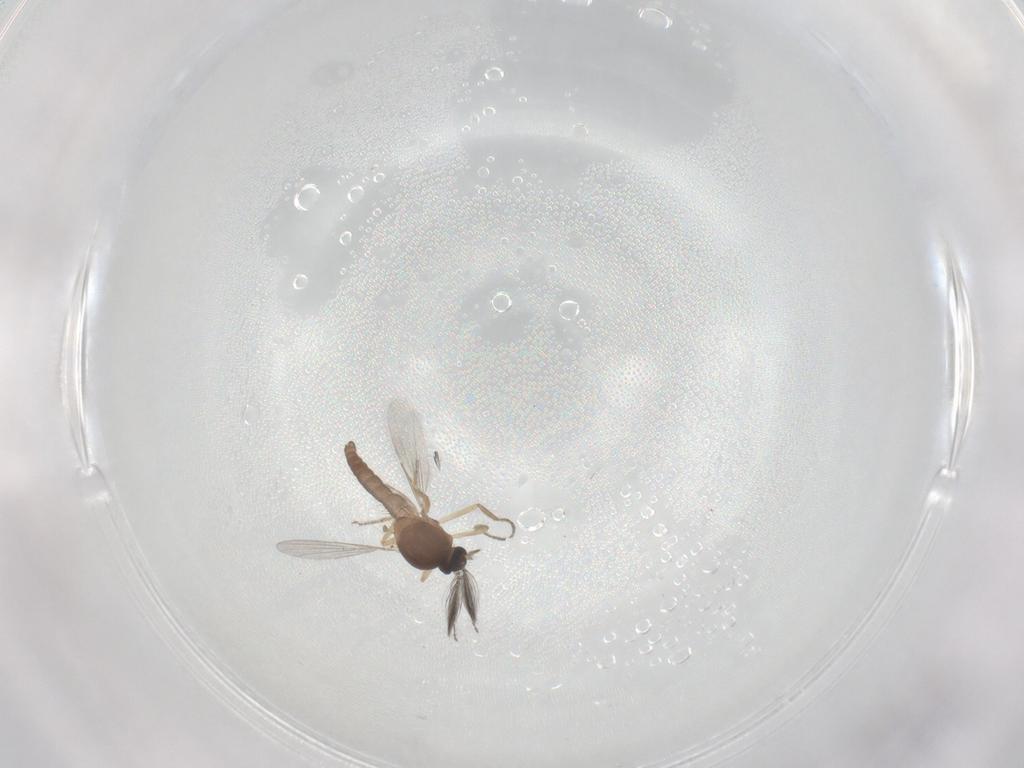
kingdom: Animalia
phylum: Arthropoda
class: Insecta
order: Diptera
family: Ceratopogonidae
